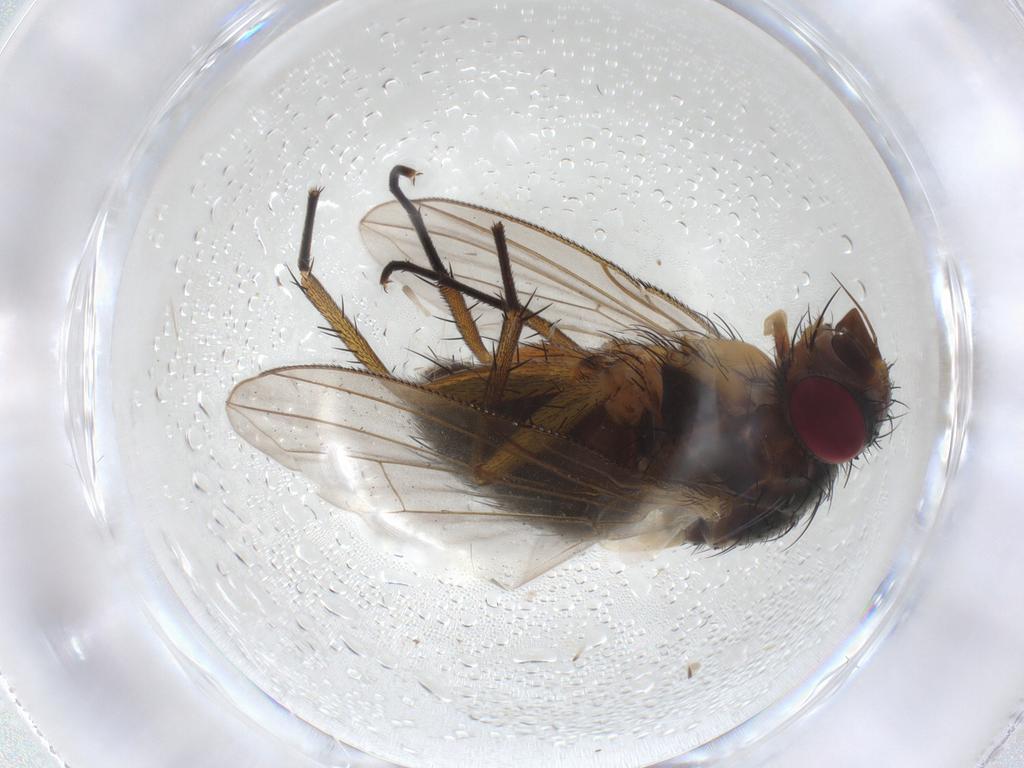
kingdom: Animalia
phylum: Arthropoda
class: Insecta
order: Diptera
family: Anthomyiidae
